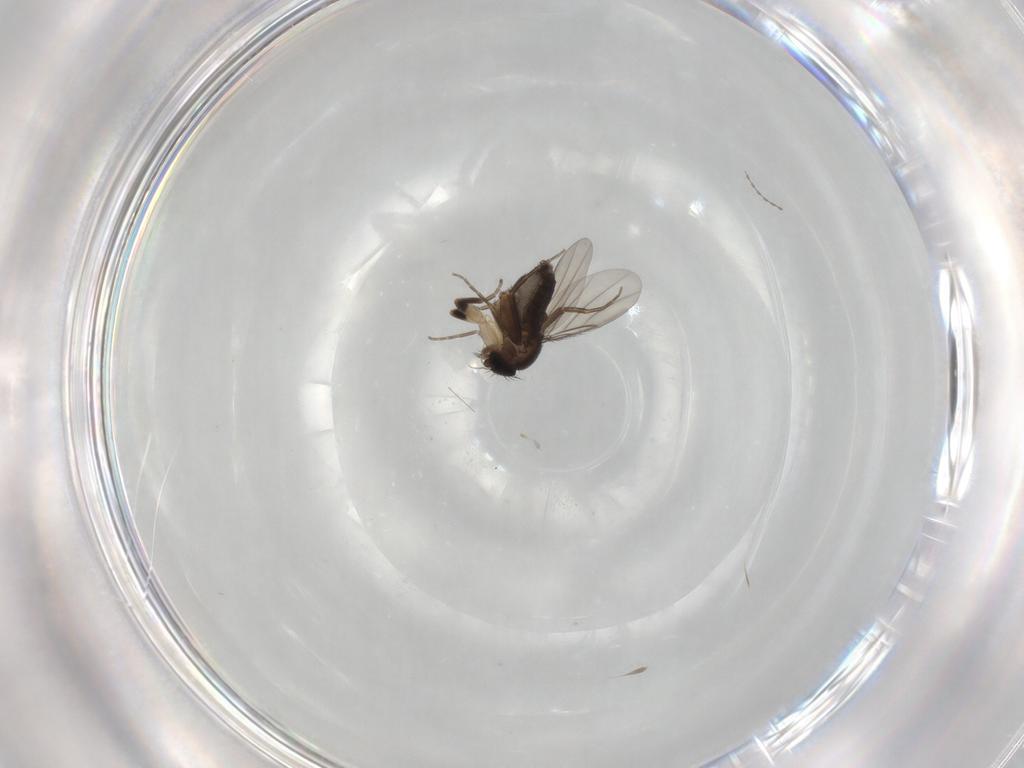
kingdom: Animalia
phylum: Arthropoda
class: Insecta
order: Diptera
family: Phoridae
